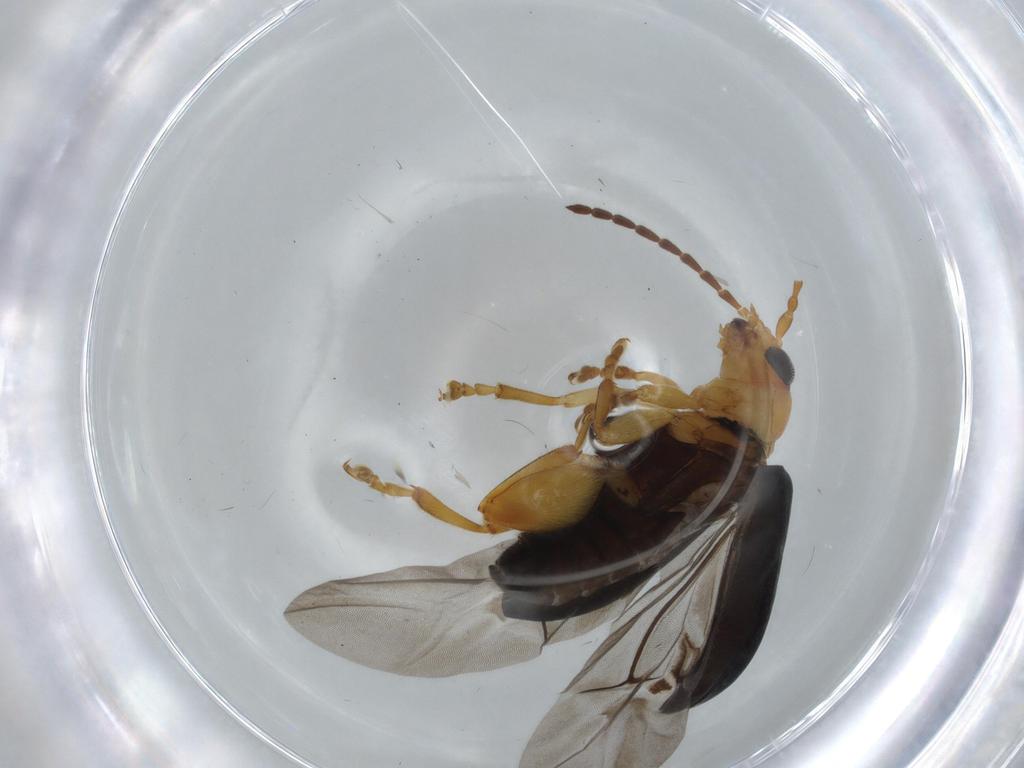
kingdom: Animalia
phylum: Arthropoda
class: Insecta
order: Coleoptera
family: Chrysomelidae
